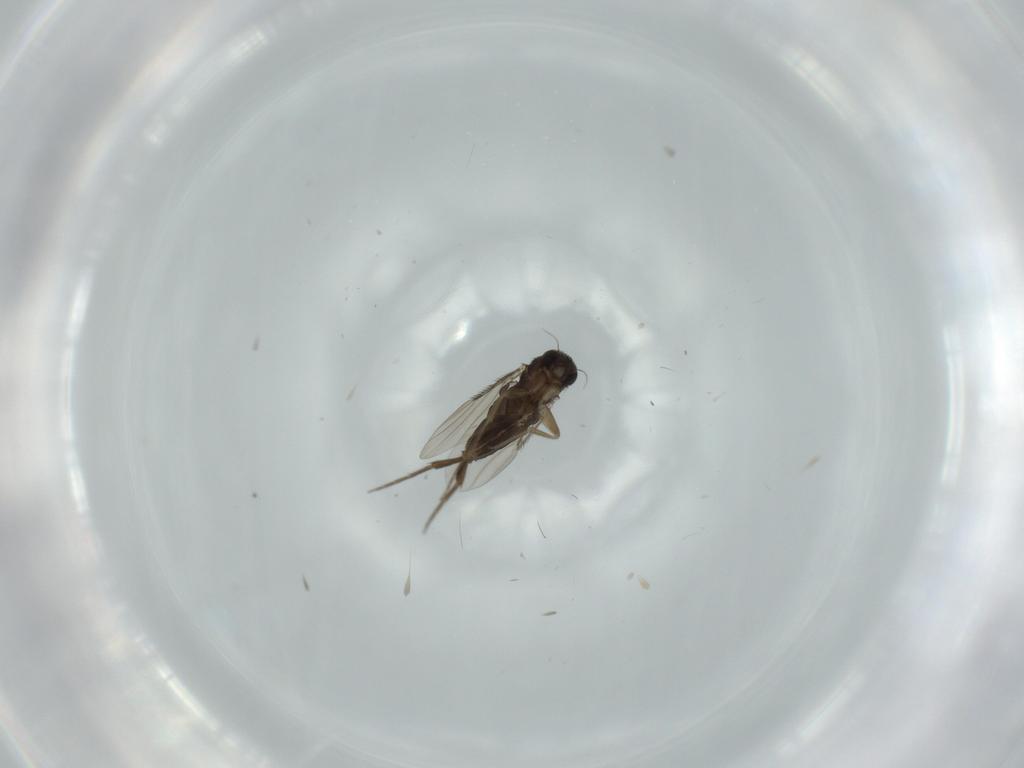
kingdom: Animalia
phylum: Arthropoda
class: Insecta
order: Diptera
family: Phoridae
